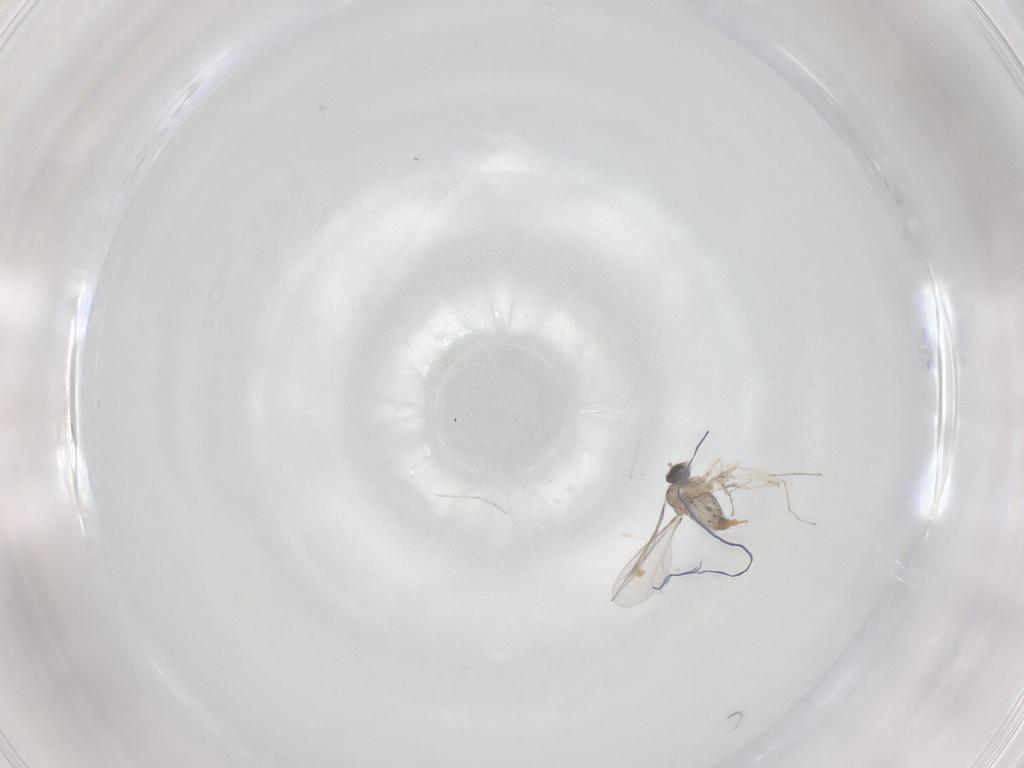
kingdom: Animalia
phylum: Arthropoda
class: Insecta
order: Diptera
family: Cecidomyiidae
